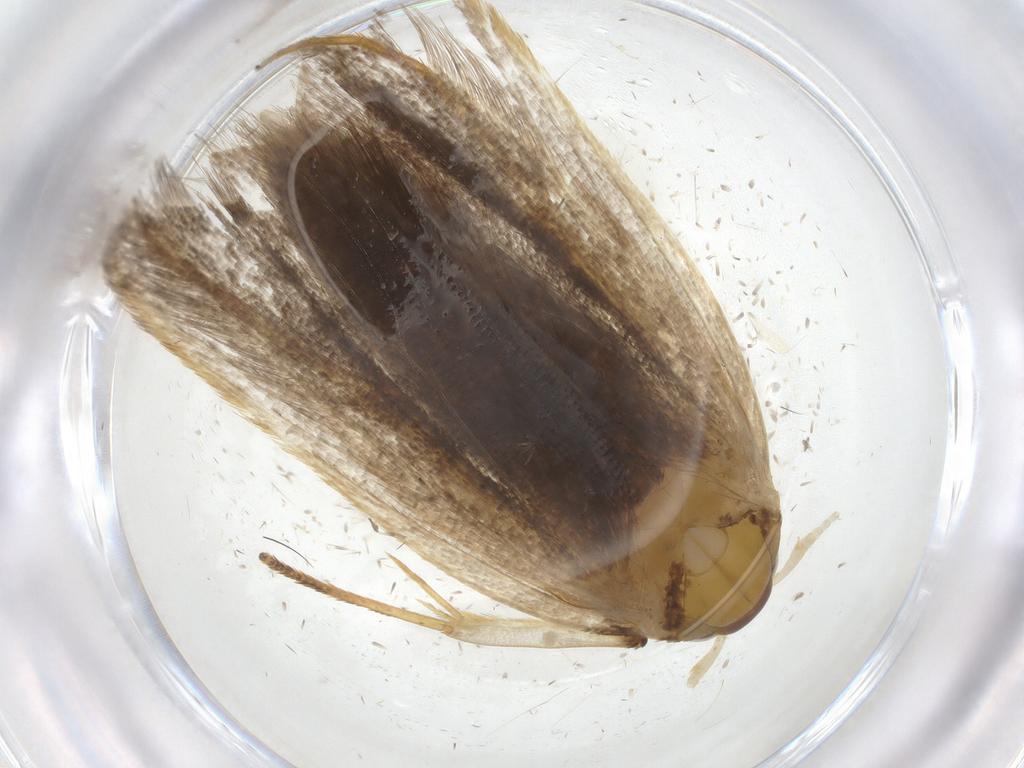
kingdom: Animalia
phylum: Arthropoda
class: Insecta
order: Lepidoptera
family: Lecithoceridae
